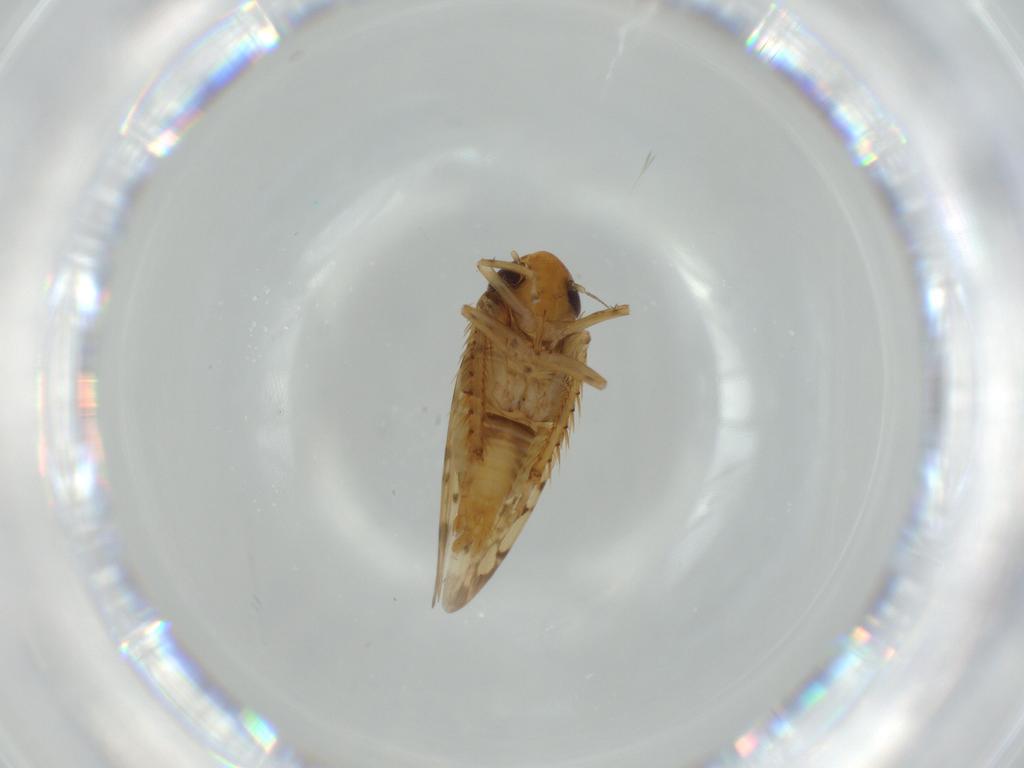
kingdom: Animalia
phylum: Arthropoda
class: Insecta
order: Hemiptera
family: Cicadellidae
